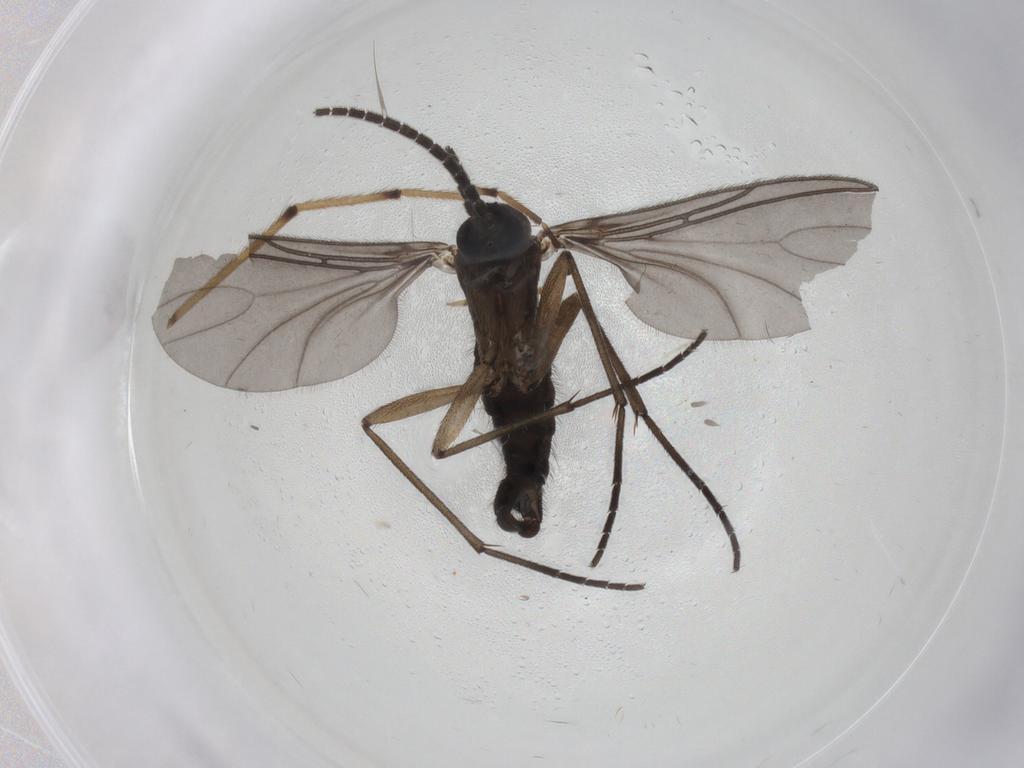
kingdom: Animalia
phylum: Arthropoda
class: Insecta
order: Diptera
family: Sciaridae
